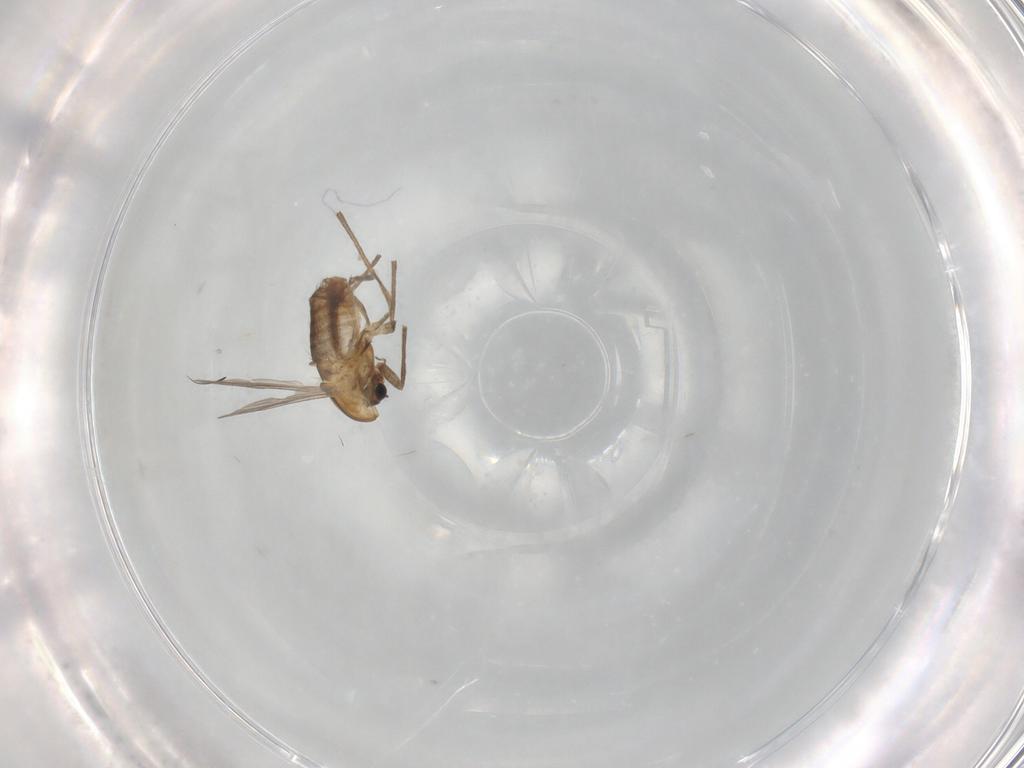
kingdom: Animalia
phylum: Arthropoda
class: Insecta
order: Diptera
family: Chironomidae
